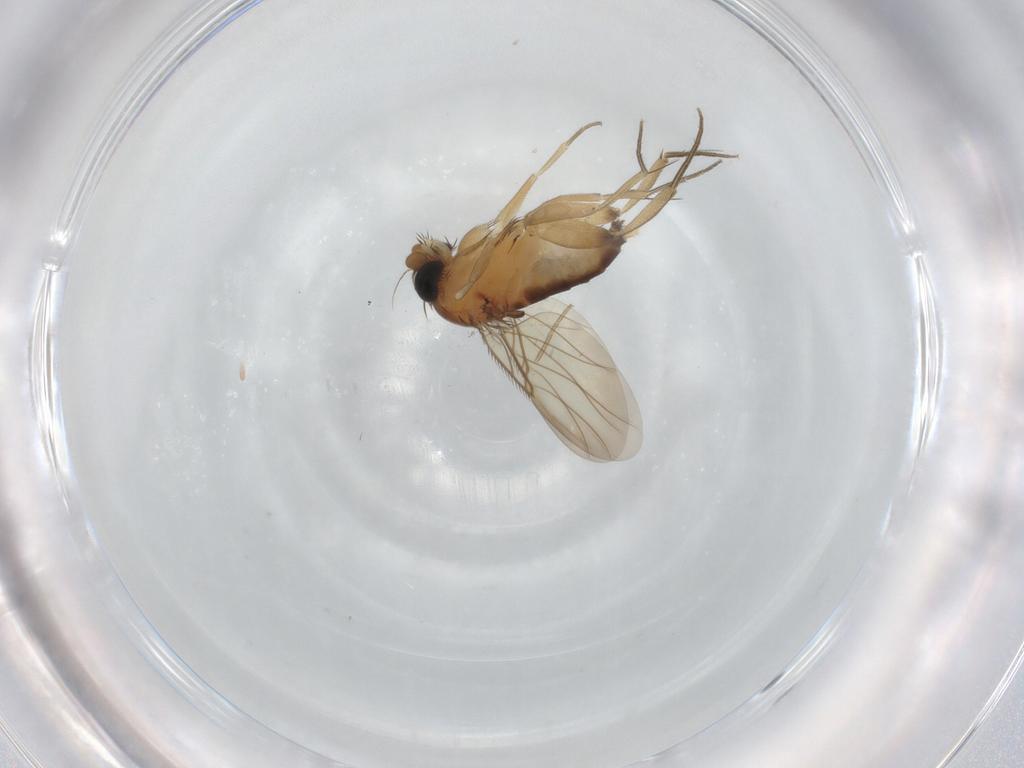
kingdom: Animalia
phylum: Arthropoda
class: Insecta
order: Diptera
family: Phoridae
